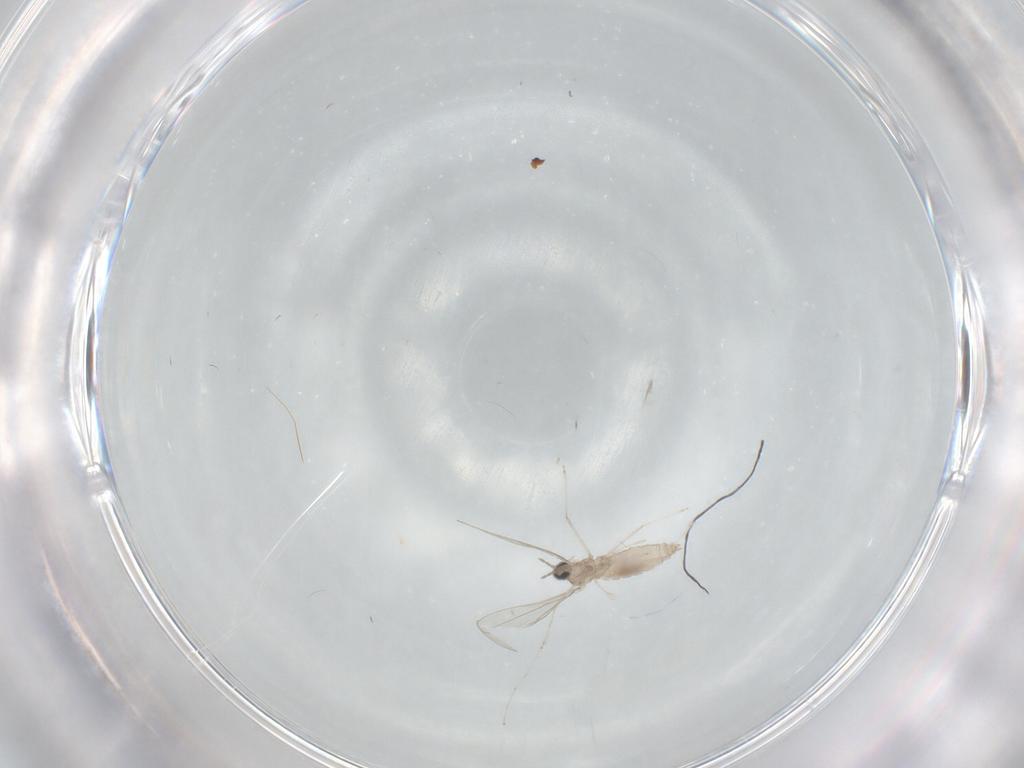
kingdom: Animalia
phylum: Arthropoda
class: Insecta
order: Diptera
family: Cecidomyiidae
